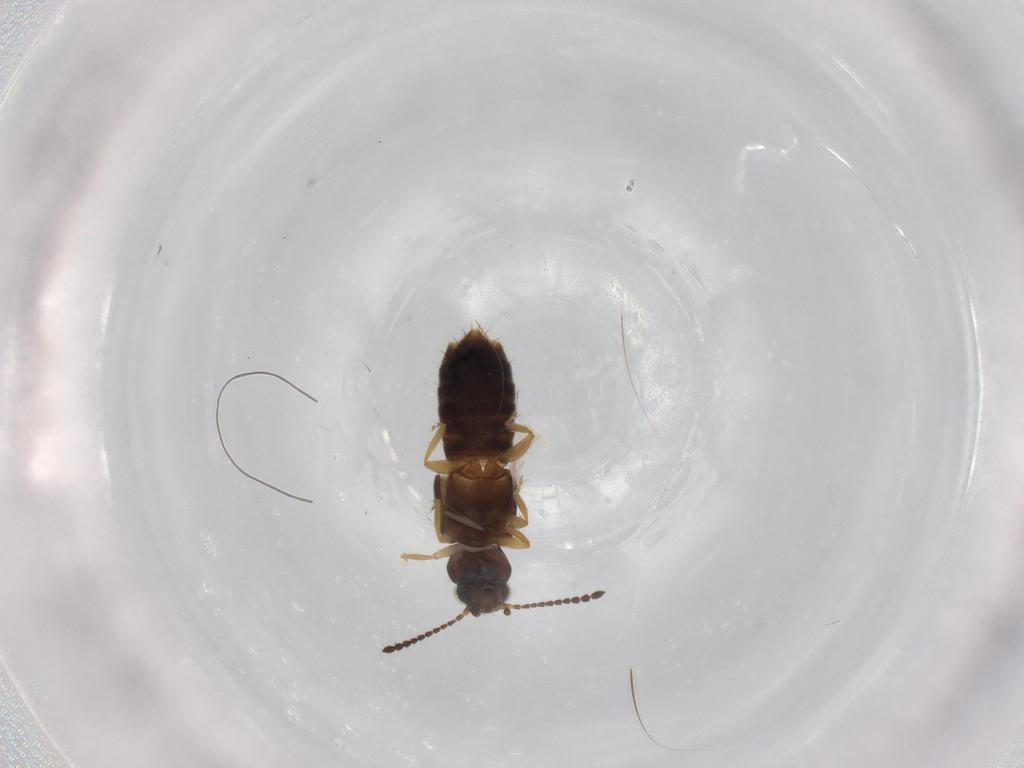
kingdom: Animalia
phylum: Arthropoda
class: Insecta
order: Coleoptera
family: Staphylinidae
